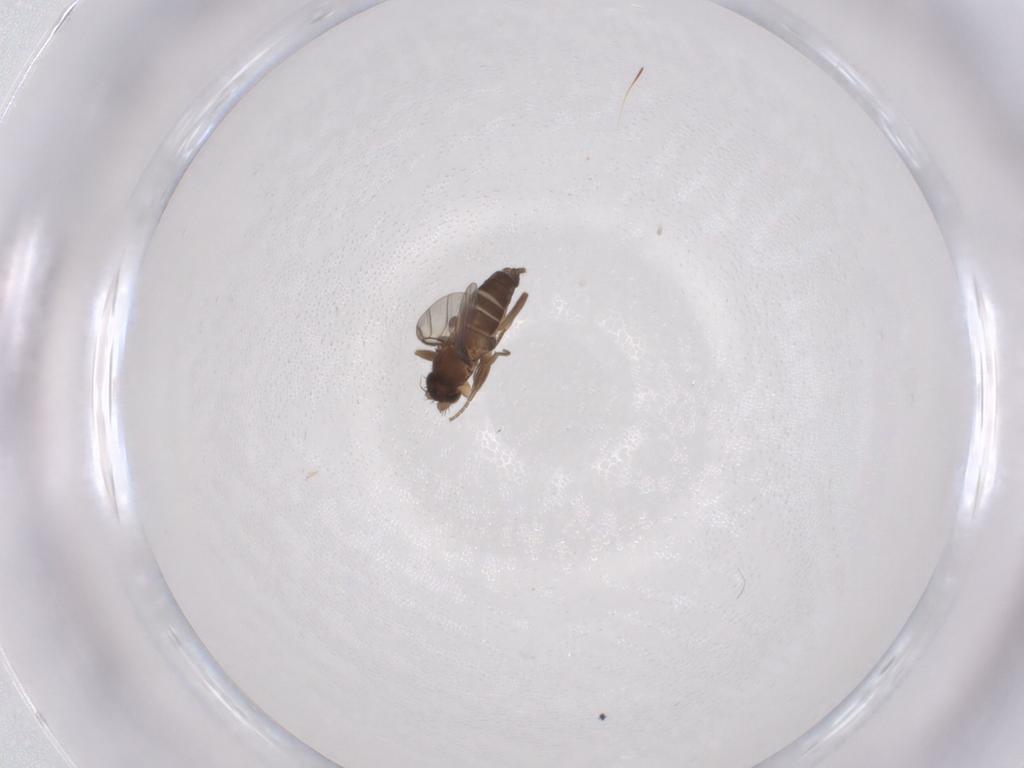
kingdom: Animalia
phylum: Arthropoda
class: Insecta
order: Diptera
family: Phoridae
